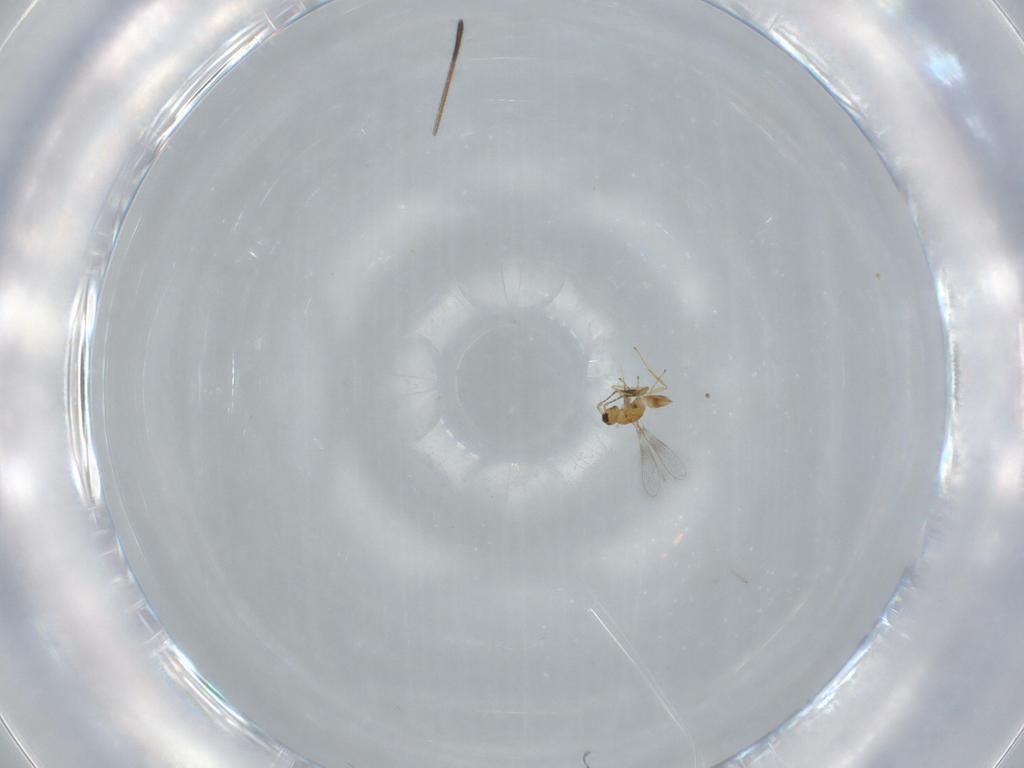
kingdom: Animalia
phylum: Arthropoda
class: Insecta
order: Hymenoptera
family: Mymaridae
